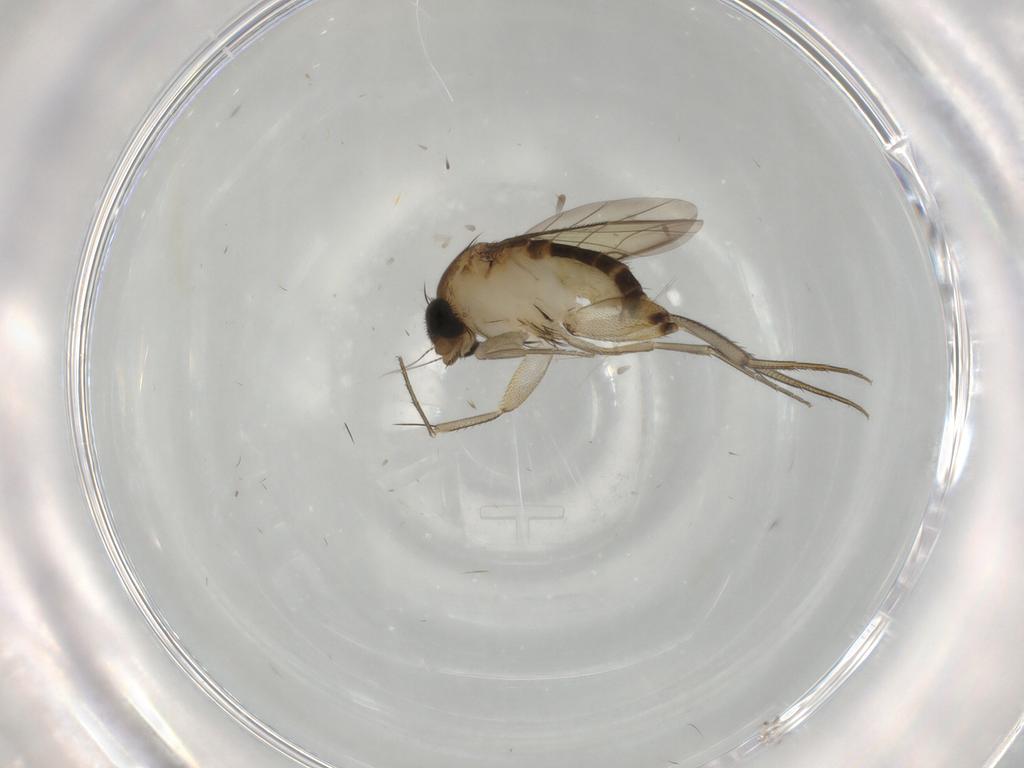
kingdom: Animalia
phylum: Arthropoda
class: Insecta
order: Diptera
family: Phoridae
